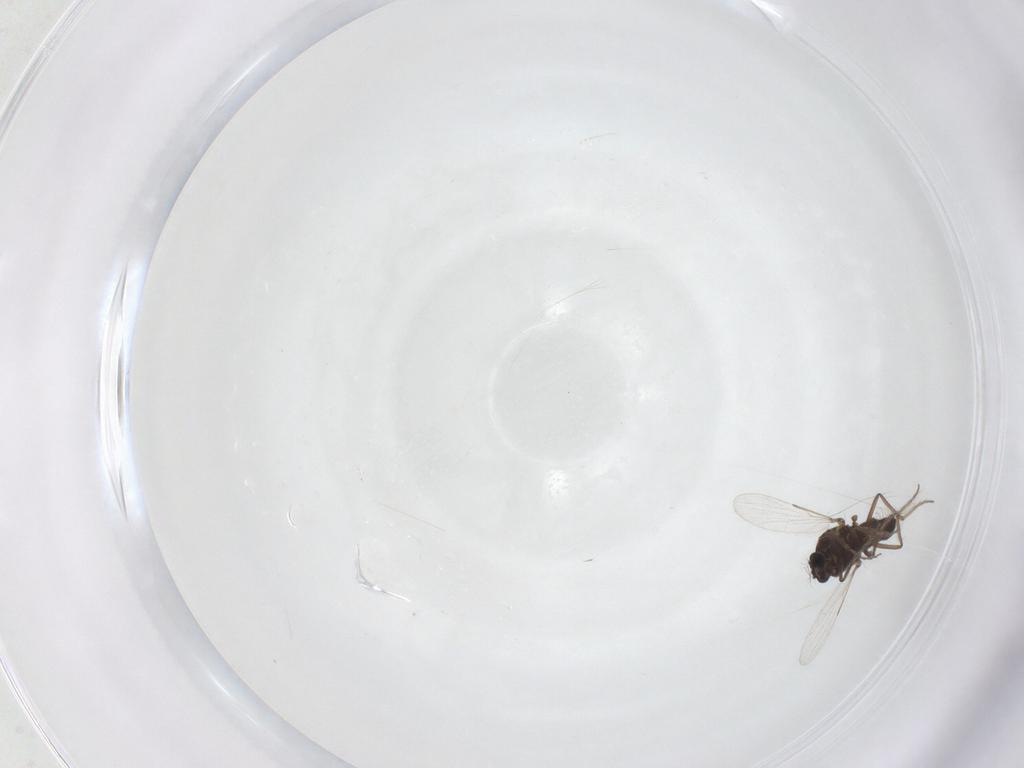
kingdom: Animalia
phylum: Arthropoda
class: Insecta
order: Diptera
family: Ceratopogonidae
